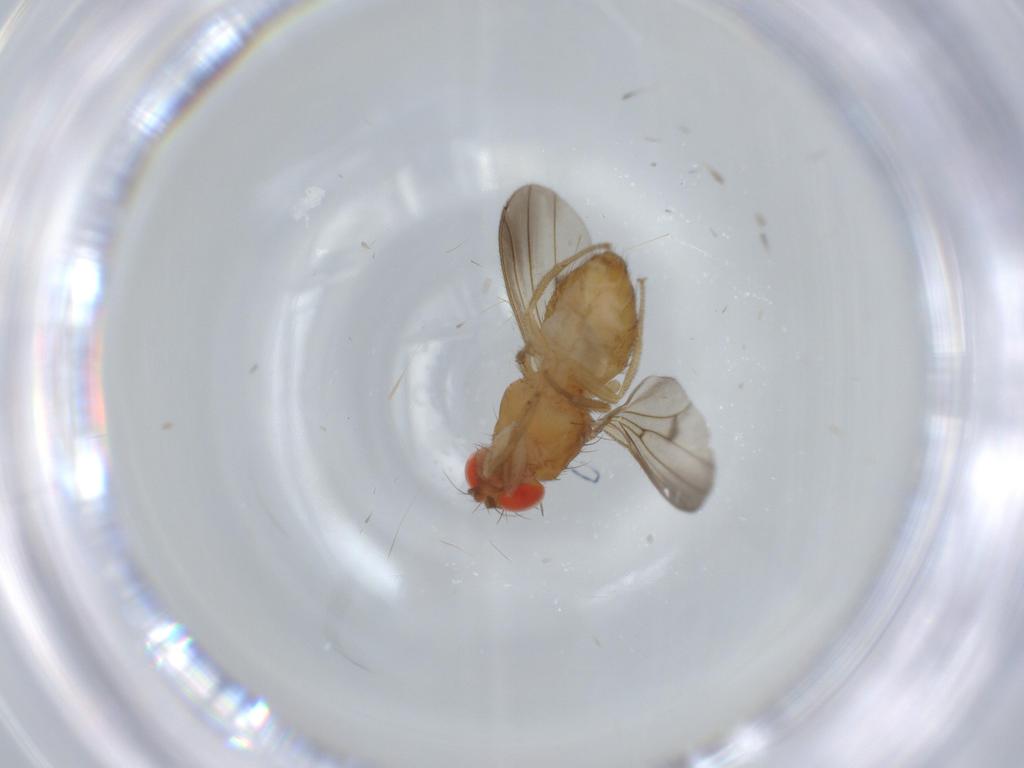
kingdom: Animalia
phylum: Arthropoda
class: Insecta
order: Diptera
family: Drosophilidae
